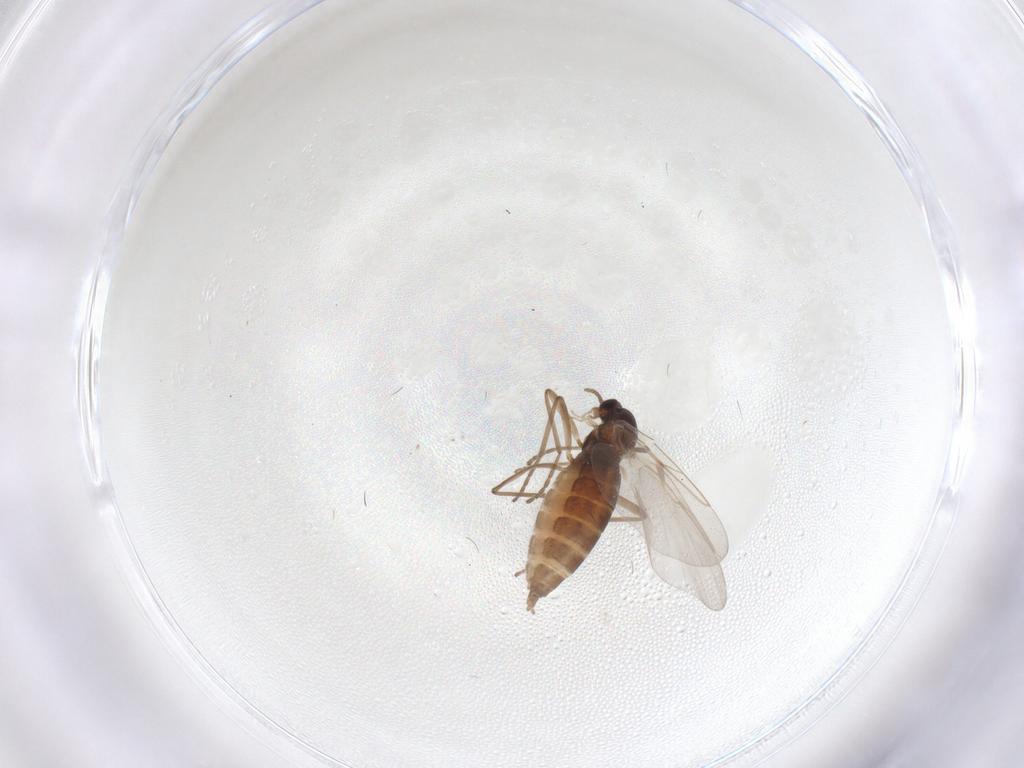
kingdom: Animalia
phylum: Arthropoda
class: Insecta
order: Diptera
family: Cecidomyiidae
